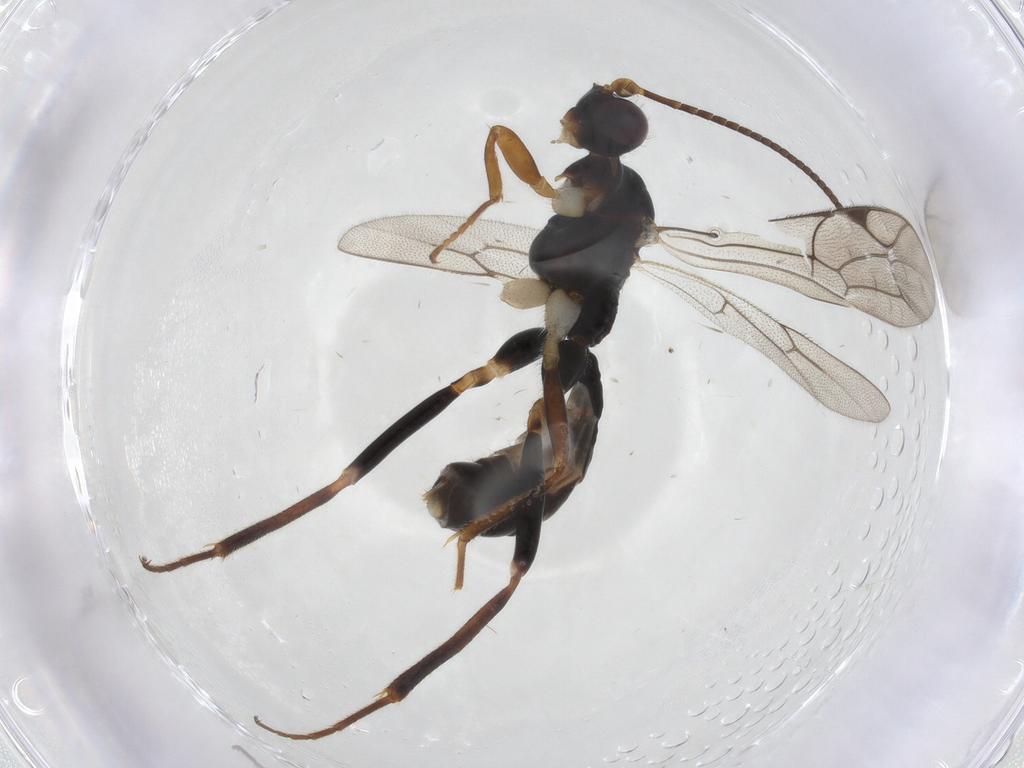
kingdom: Animalia
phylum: Arthropoda
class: Insecta
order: Hymenoptera
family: Ichneumonidae
